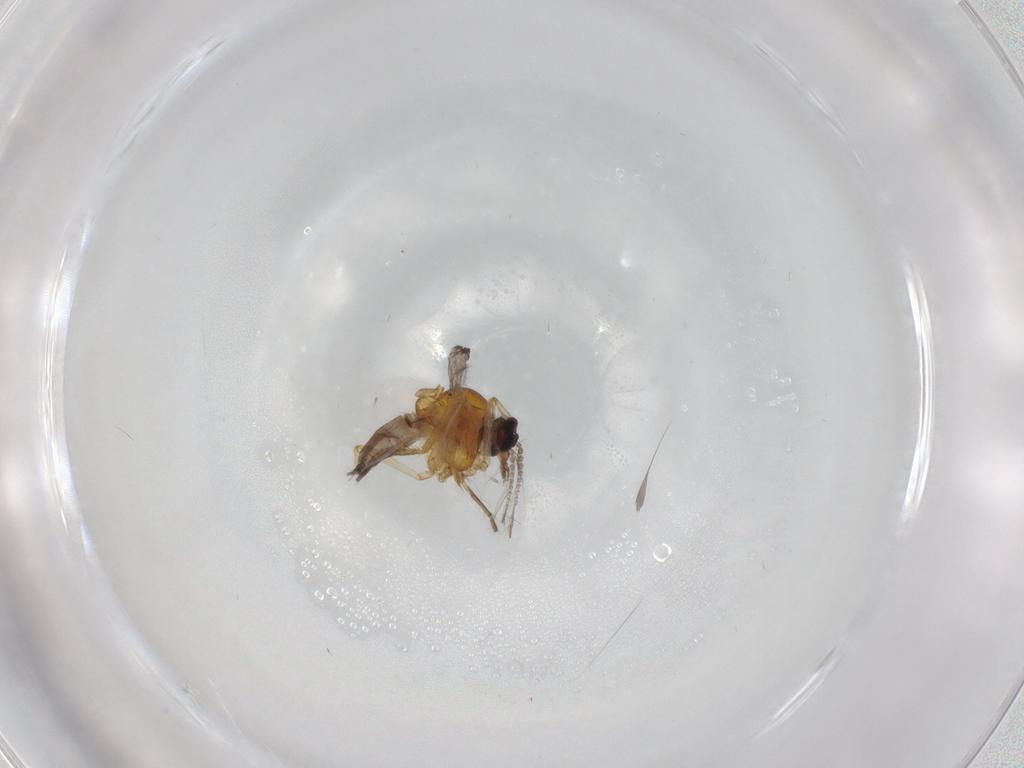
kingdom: Animalia
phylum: Arthropoda
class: Insecta
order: Diptera
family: Ceratopogonidae
